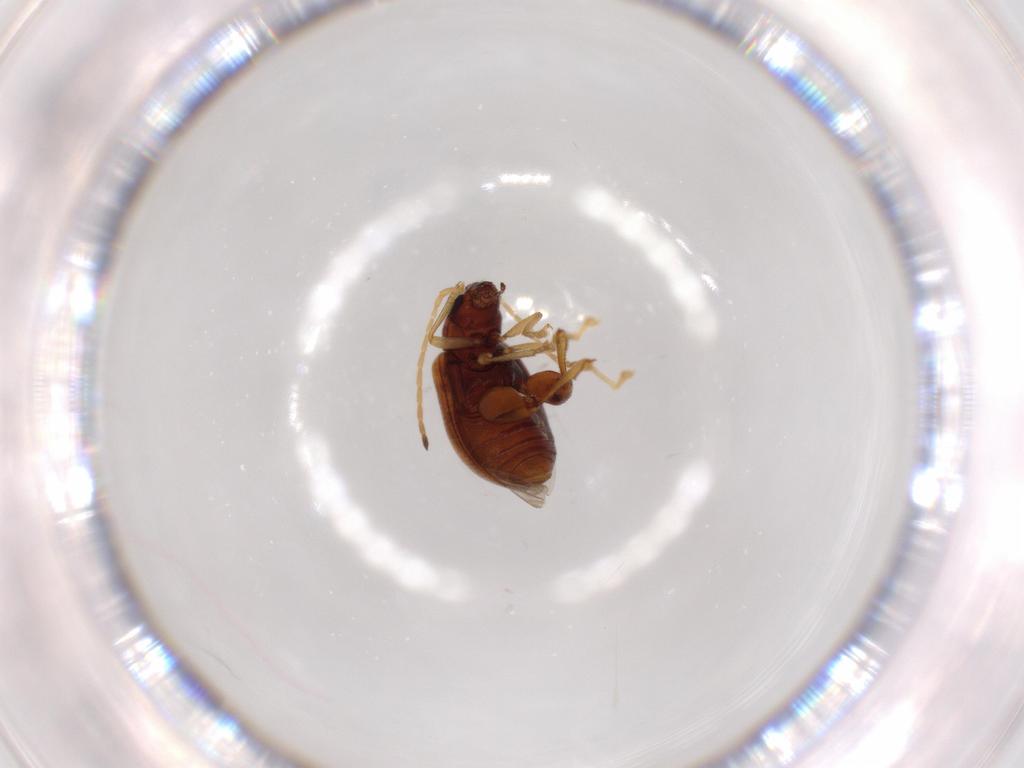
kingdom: Animalia
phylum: Arthropoda
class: Insecta
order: Coleoptera
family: Chrysomelidae
